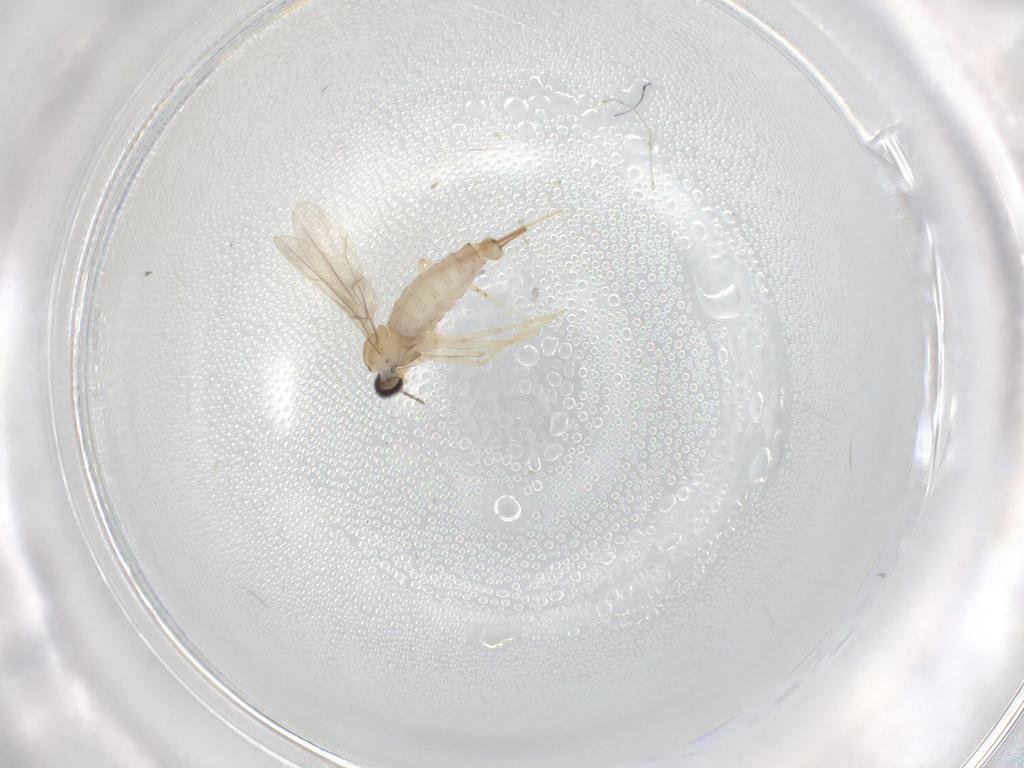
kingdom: Animalia
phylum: Arthropoda
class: Insecta
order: Diptera
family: Cecidomyiidae
